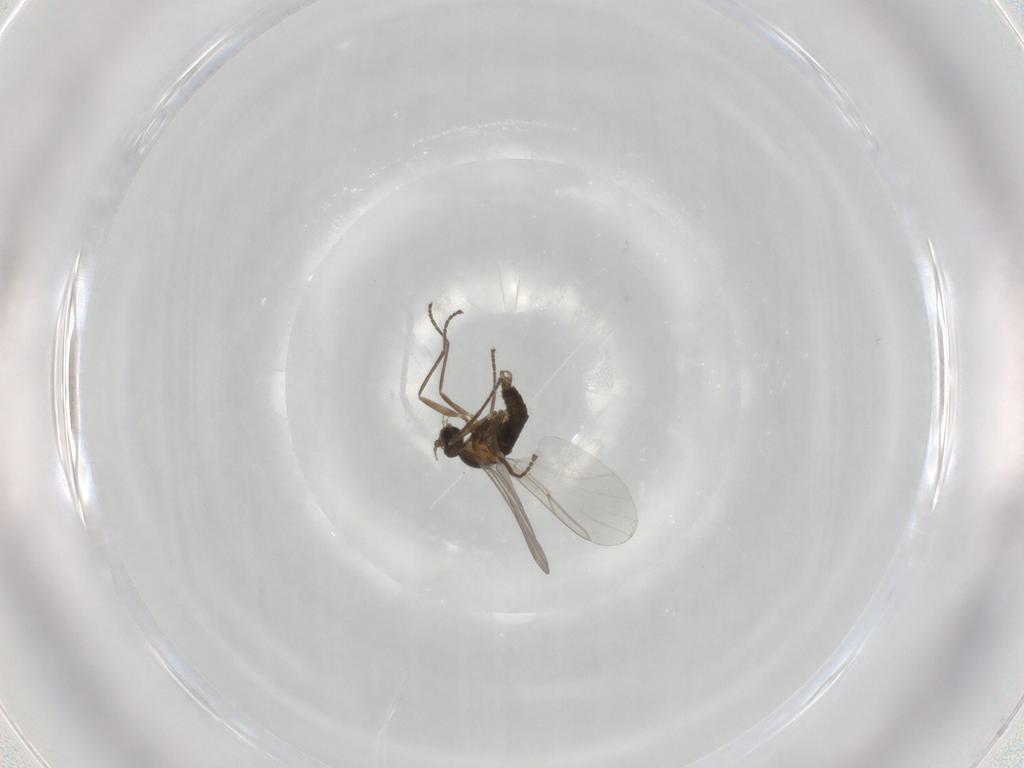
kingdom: Animalia
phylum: Arthropoda
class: Insecta
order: Diptera
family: Cecidomyiidae
